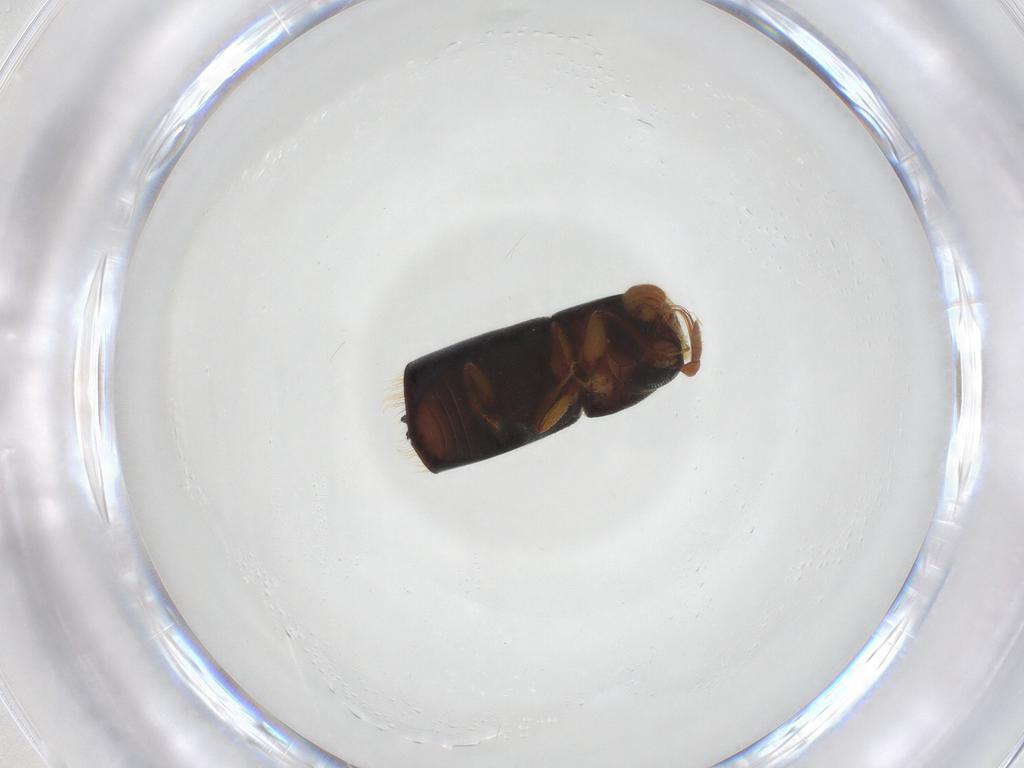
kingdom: Animalia
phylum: Arthropoda
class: Insecta
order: Coleoptera
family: Curculionidae
